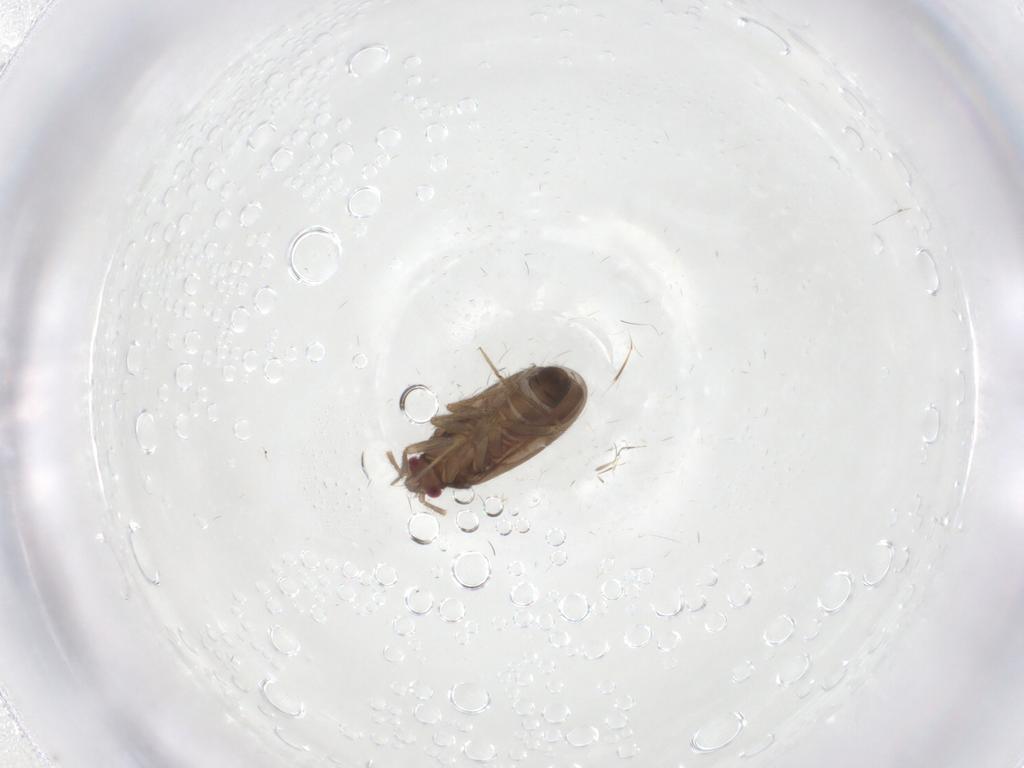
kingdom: Animalia
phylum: Arthropoda
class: Insecta
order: Hemiptera
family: Ceratocombidae
